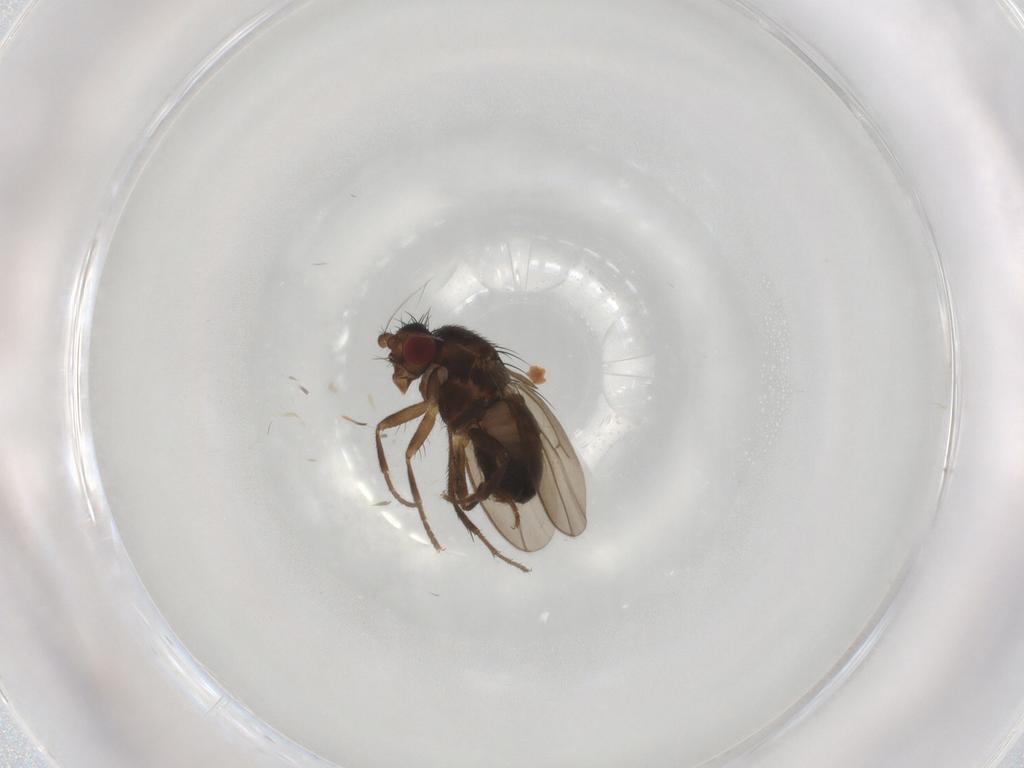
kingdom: Animalia
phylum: Arthropoda
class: Insecta
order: Diptera
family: Sphaeroceridae
